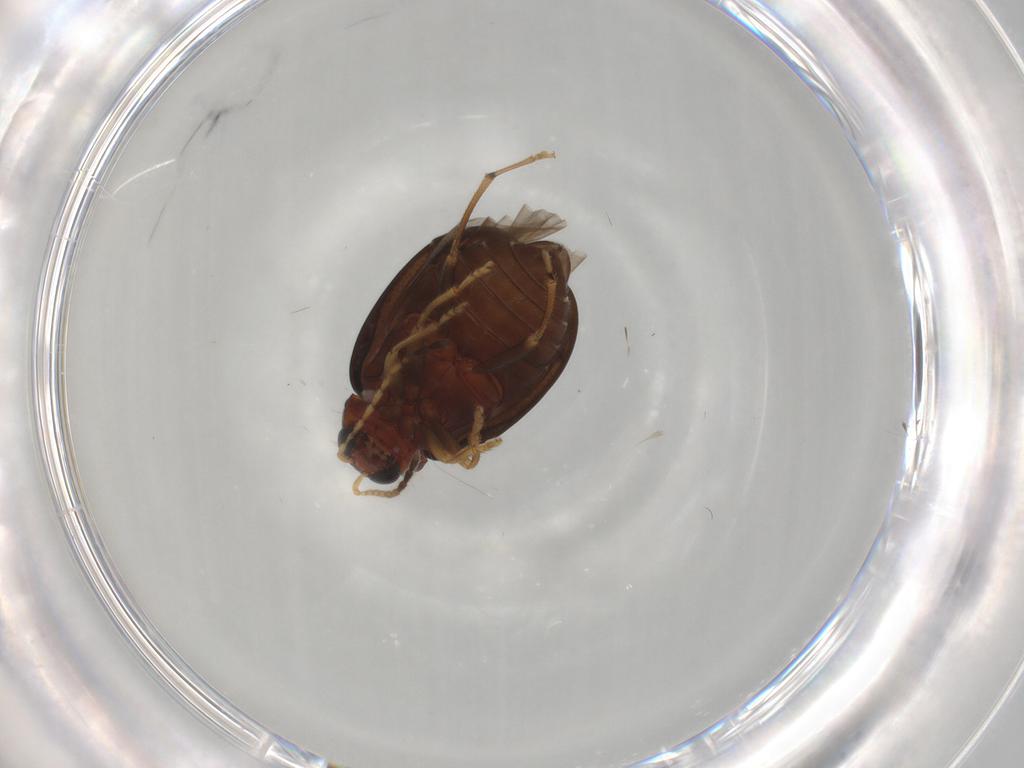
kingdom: Animalia
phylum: Arthropoda
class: Insecta
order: Coleoptera
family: Chrysomelidae
